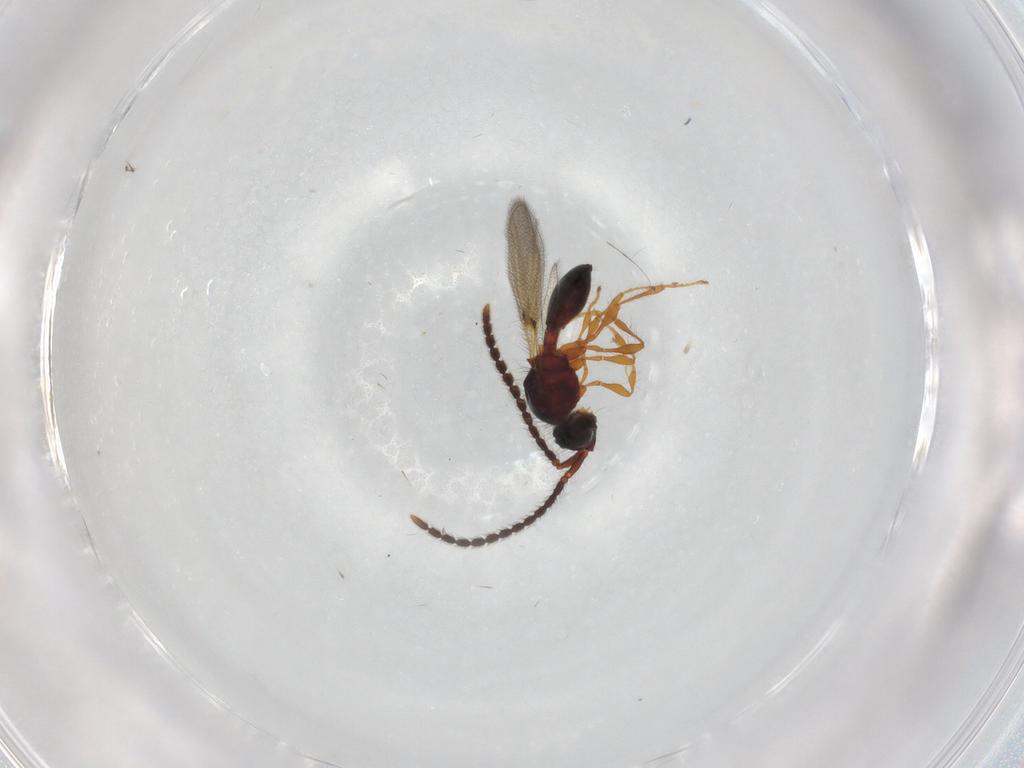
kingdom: Animalia
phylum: Arthropoda
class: Insecta
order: Hymenoptera
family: Diapriidae
